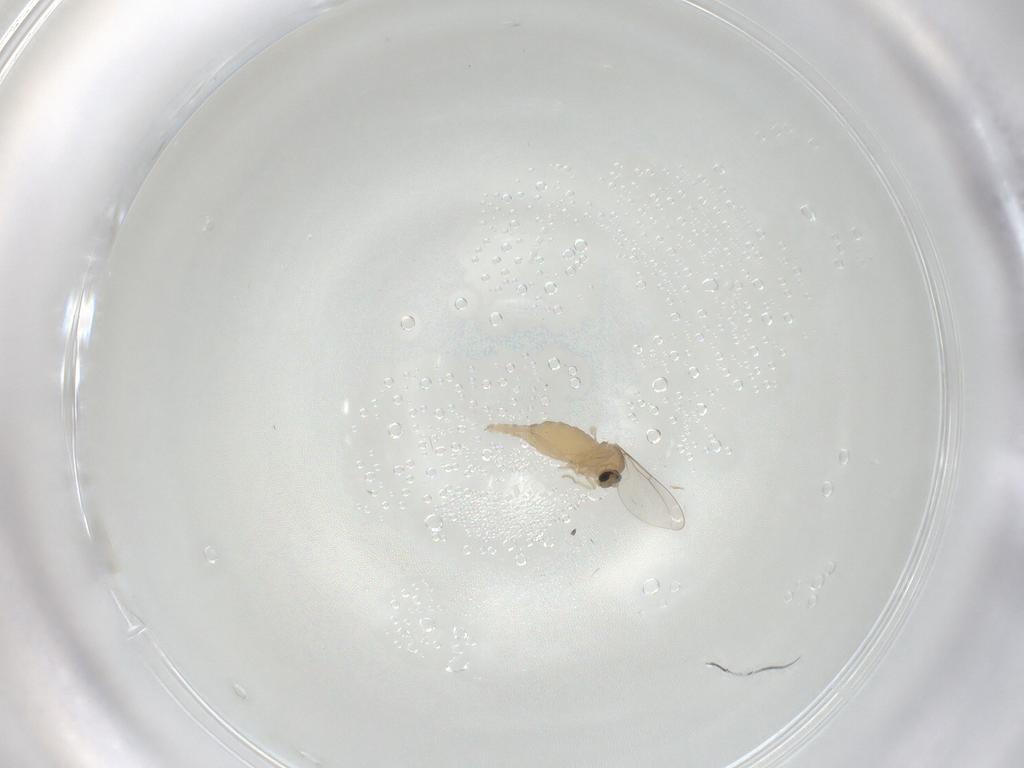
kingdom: Animalia
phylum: Arthropoda
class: Insecta
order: Diptera
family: Cecidomyiidae
